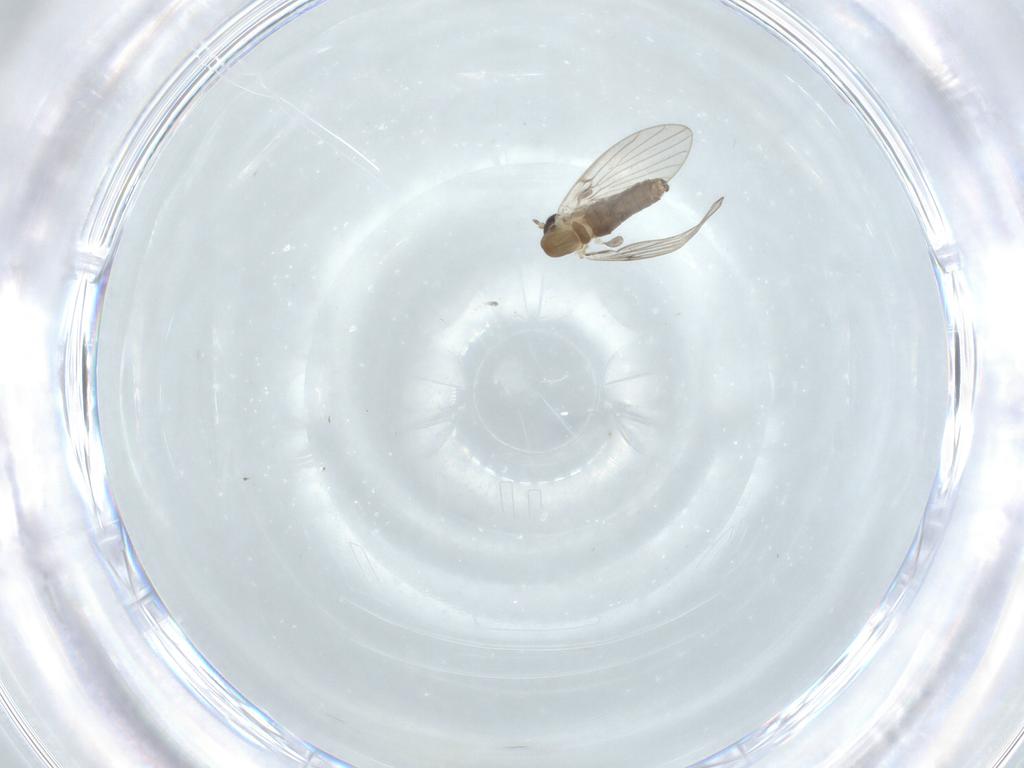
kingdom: Animalia
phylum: Arthropoda
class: Insecta
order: Diptera
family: Psychodidae
